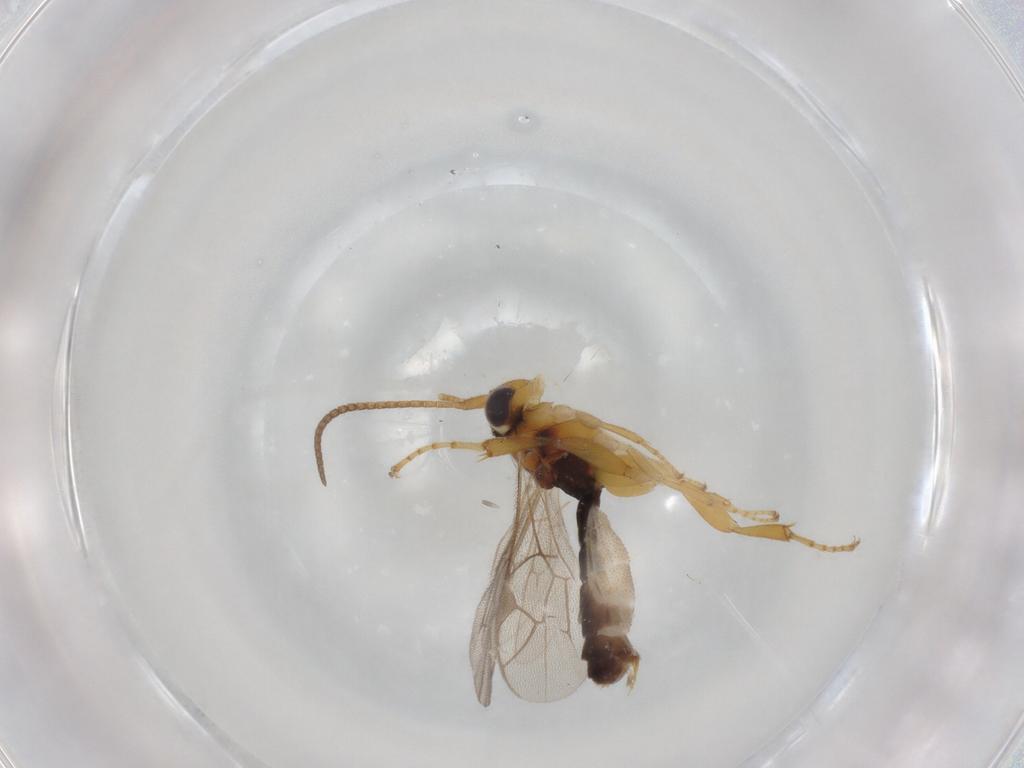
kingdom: Animalia
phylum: Arthropoda
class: Insecta
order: Hymenoptera
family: Ichneumonidae
